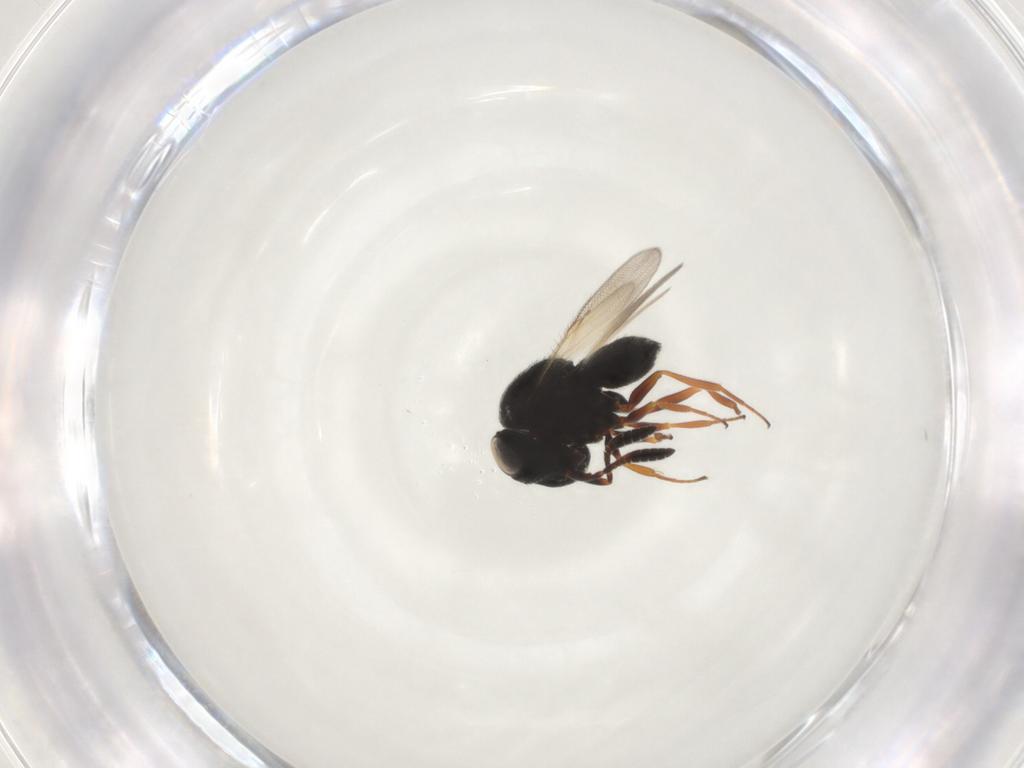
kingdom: Animalia
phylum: Arthropoda
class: Insecta
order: Hymenoptera
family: Scelionidae
